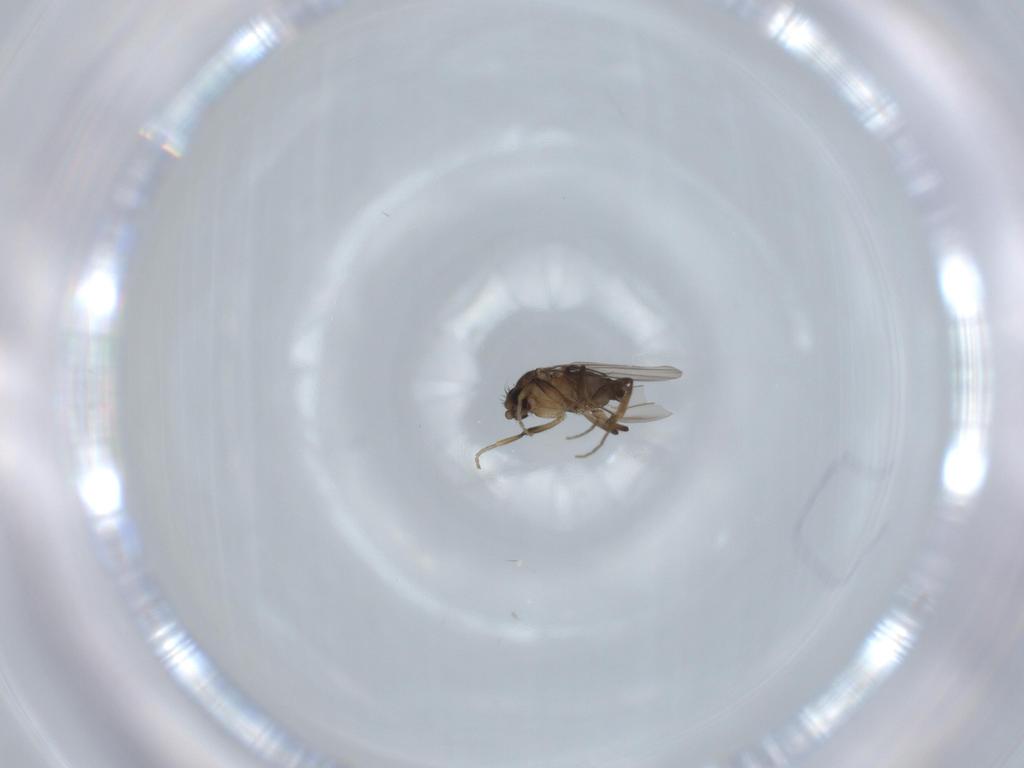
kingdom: Animalia
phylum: Arthropoda
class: Insecta
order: Diptera
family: Phoridae
